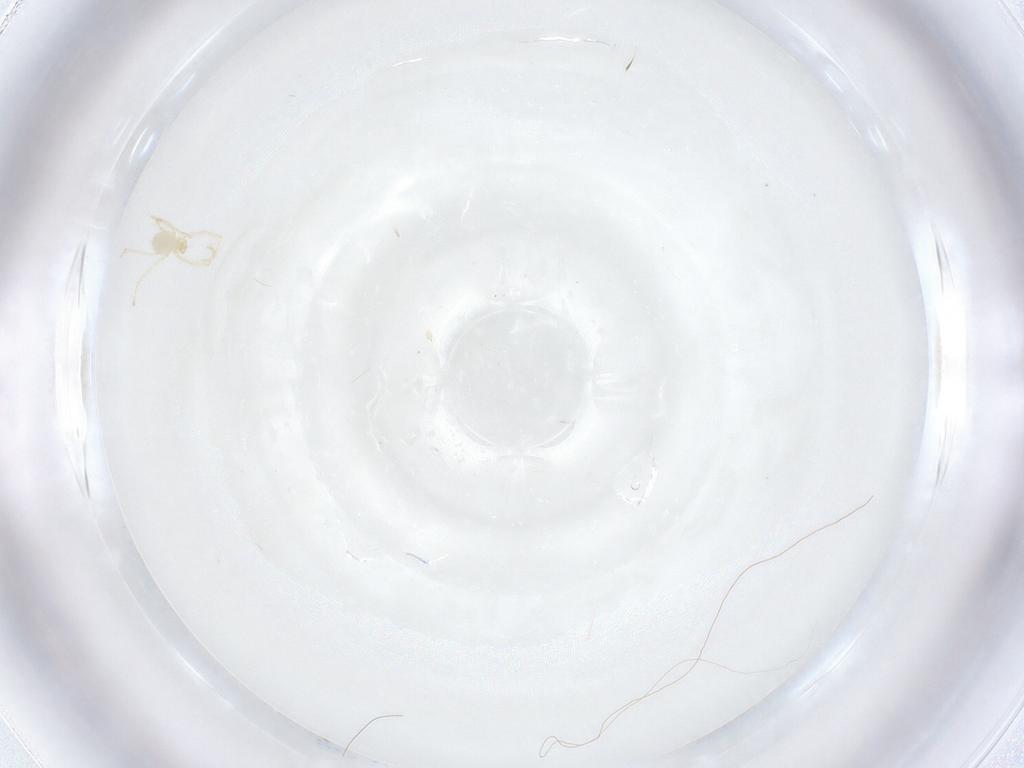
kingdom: Animalia
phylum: Arthropoda
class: Arachnida
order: Trombidiformes
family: Erythraeidae
